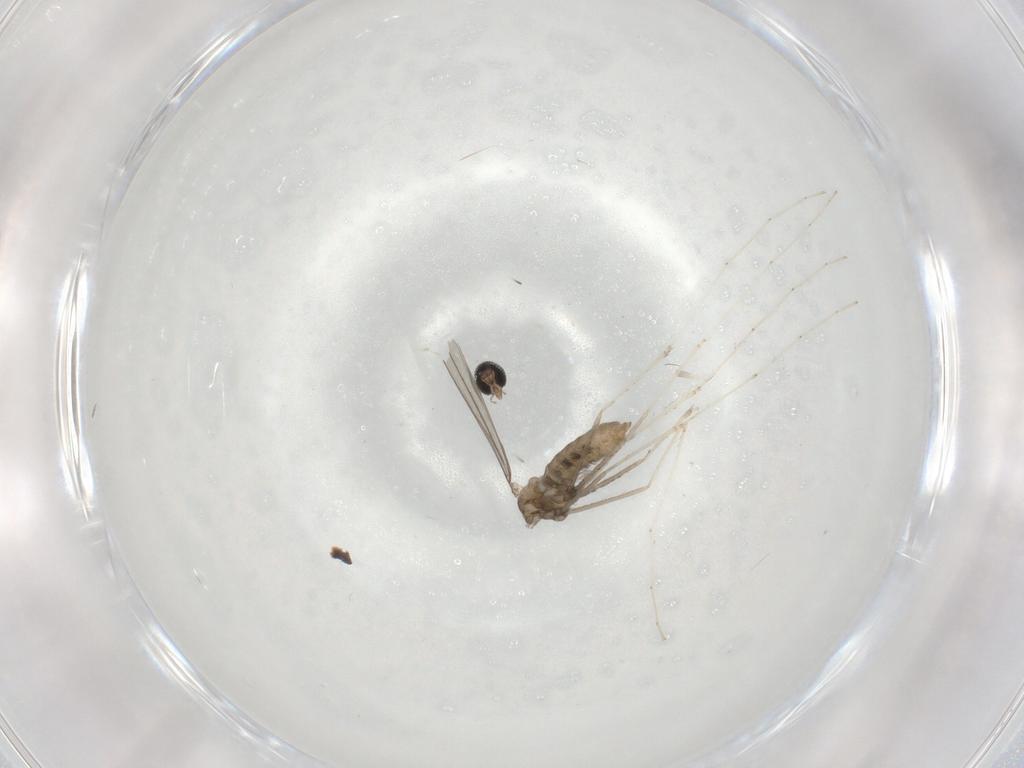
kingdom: Animalia
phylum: Arthropoda
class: Insecta
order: Diptera
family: Cecidomyiidae
